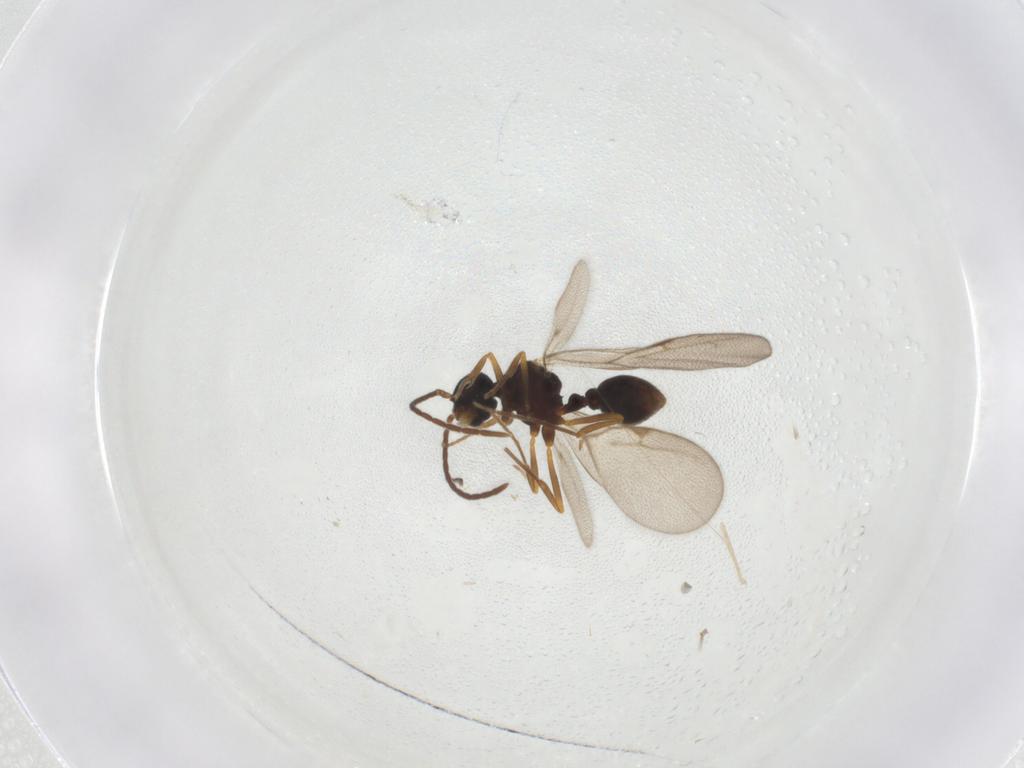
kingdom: Animalia
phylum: Arthropoda
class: Insecta
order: Hymenoptera
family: Formicidae
